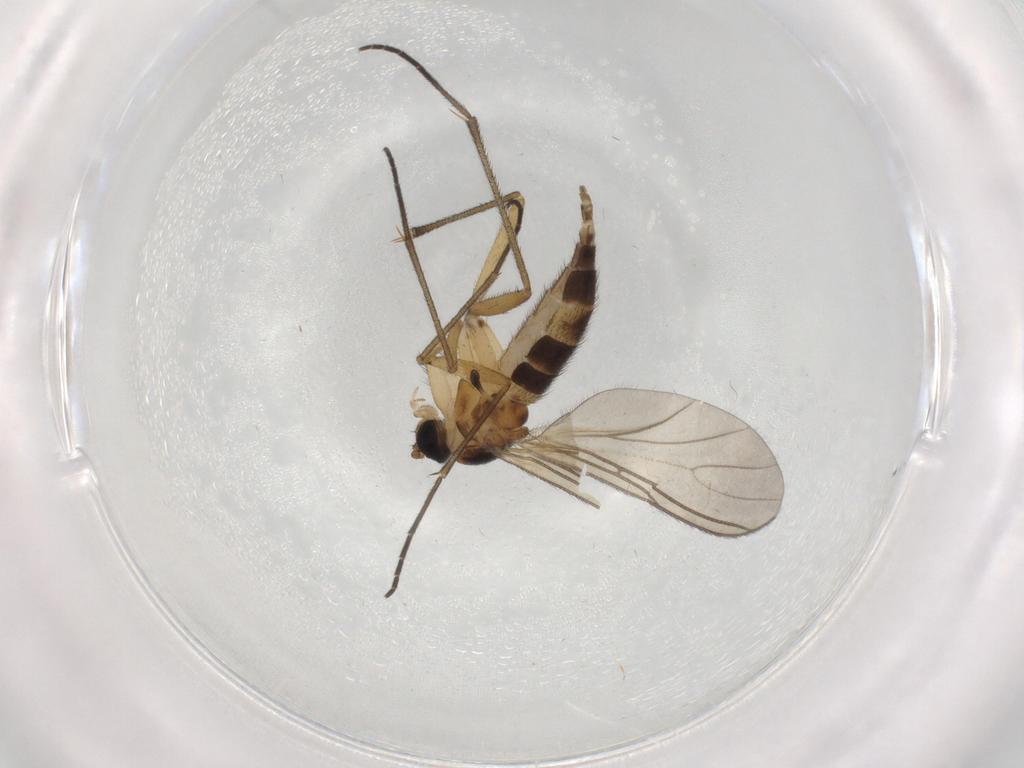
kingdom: Animalia
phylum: Arthropoda
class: Insecta
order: Diptera
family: Sciaridae
